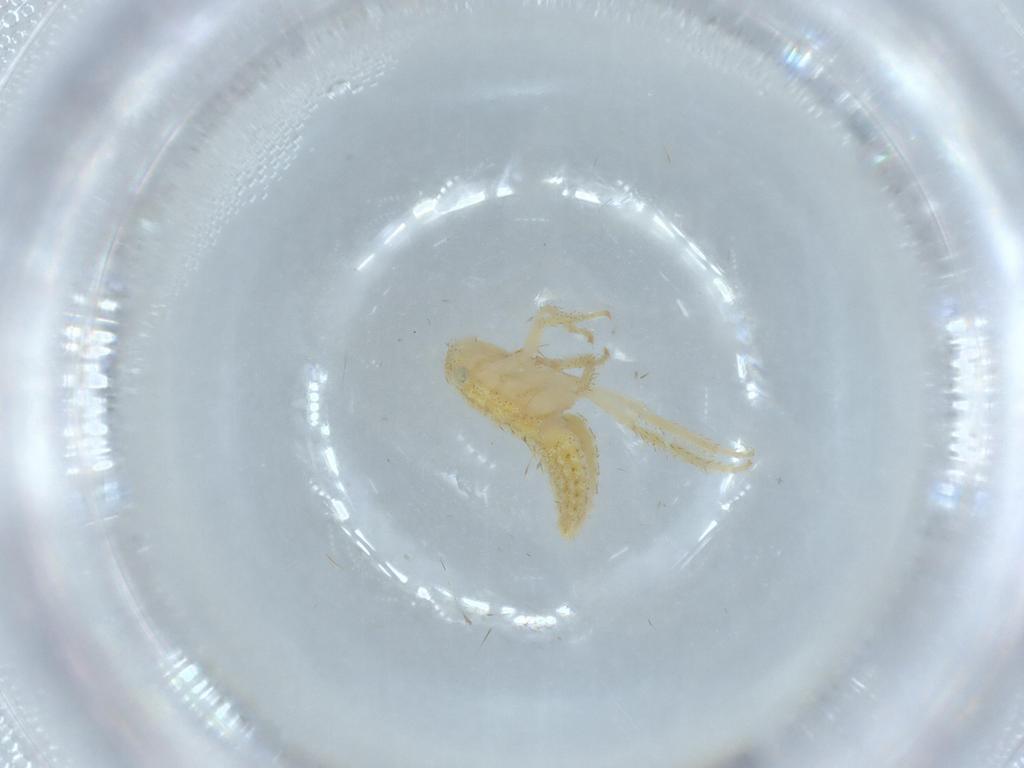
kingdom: Animalia
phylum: Arthropoda
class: Insecta
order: Hemiptera
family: Cicadellidae
